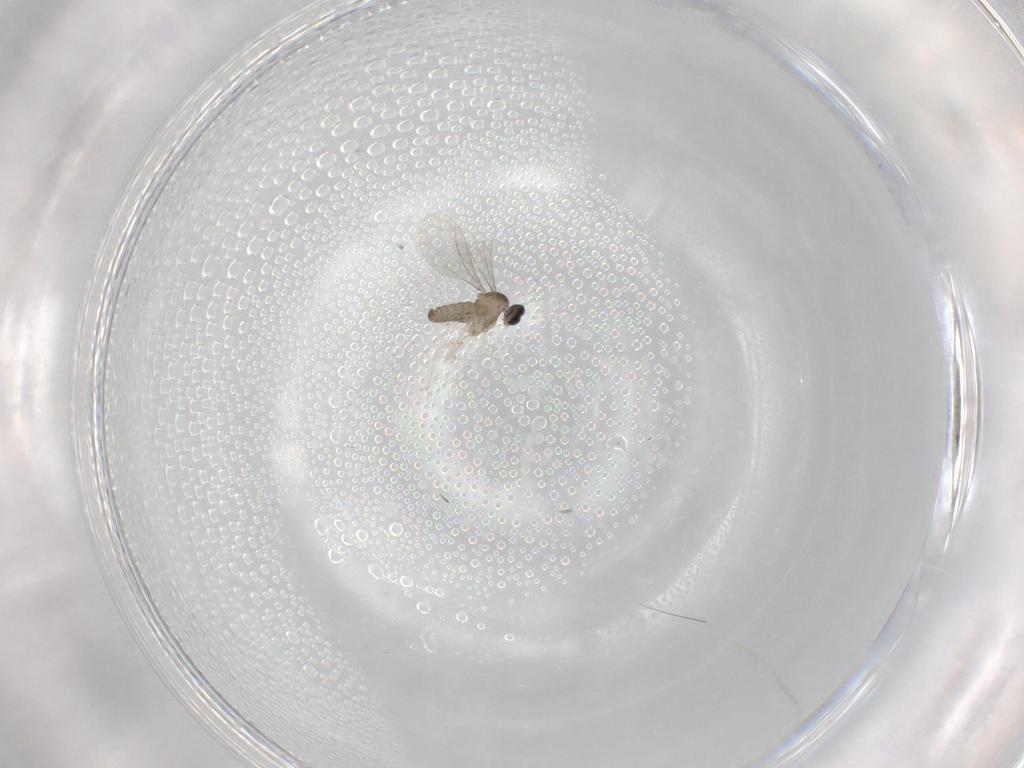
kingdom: Animalia
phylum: Arthropoda
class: Insecta
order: Diptera
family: Cecidomyiidae
